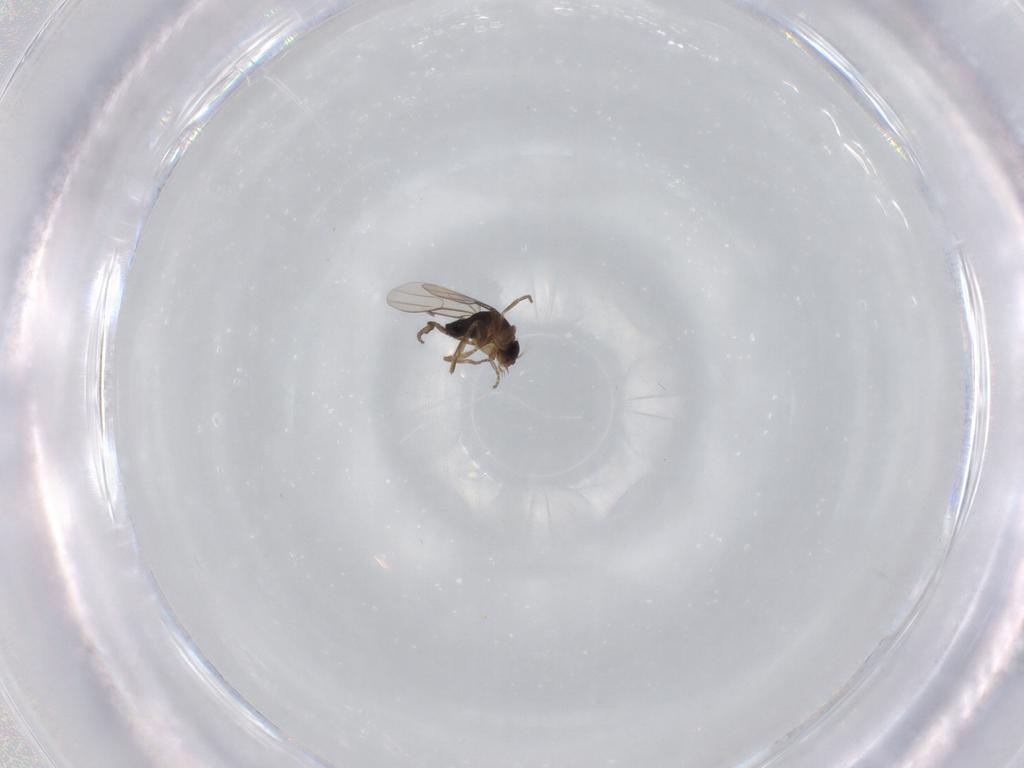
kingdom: Animalia
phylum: Arthropoda
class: Insecta
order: Diptera
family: Phoridae
